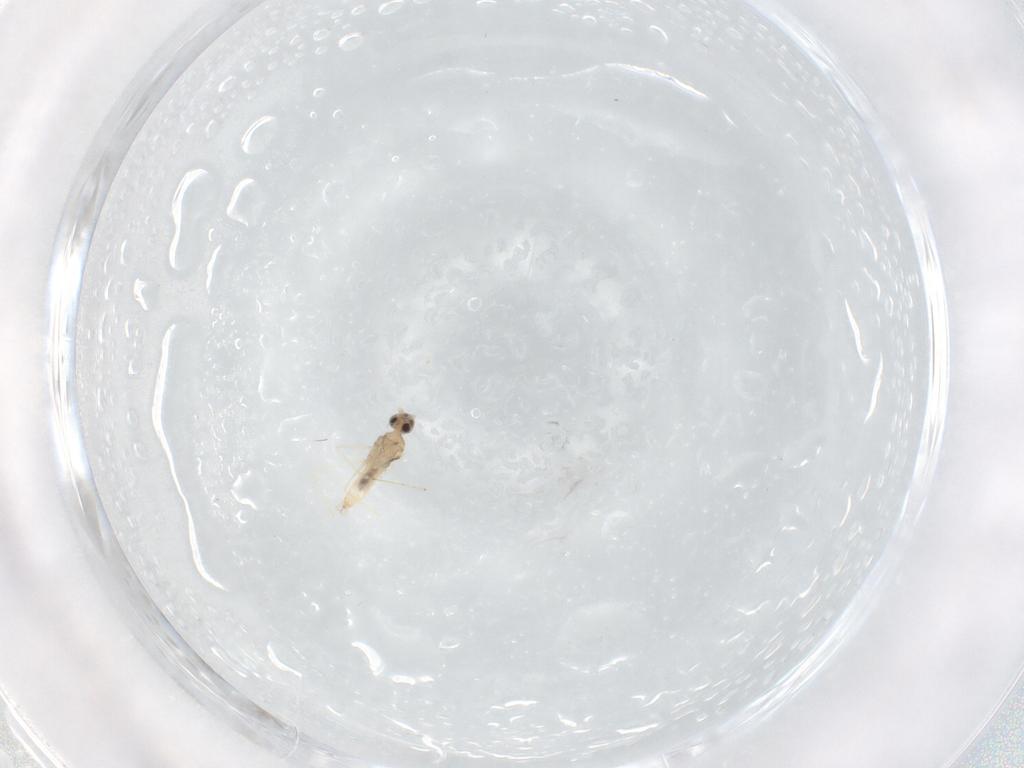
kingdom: Animalia
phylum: Arthropoda
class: Insecta
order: Diptera
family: Cecidomyiidae
